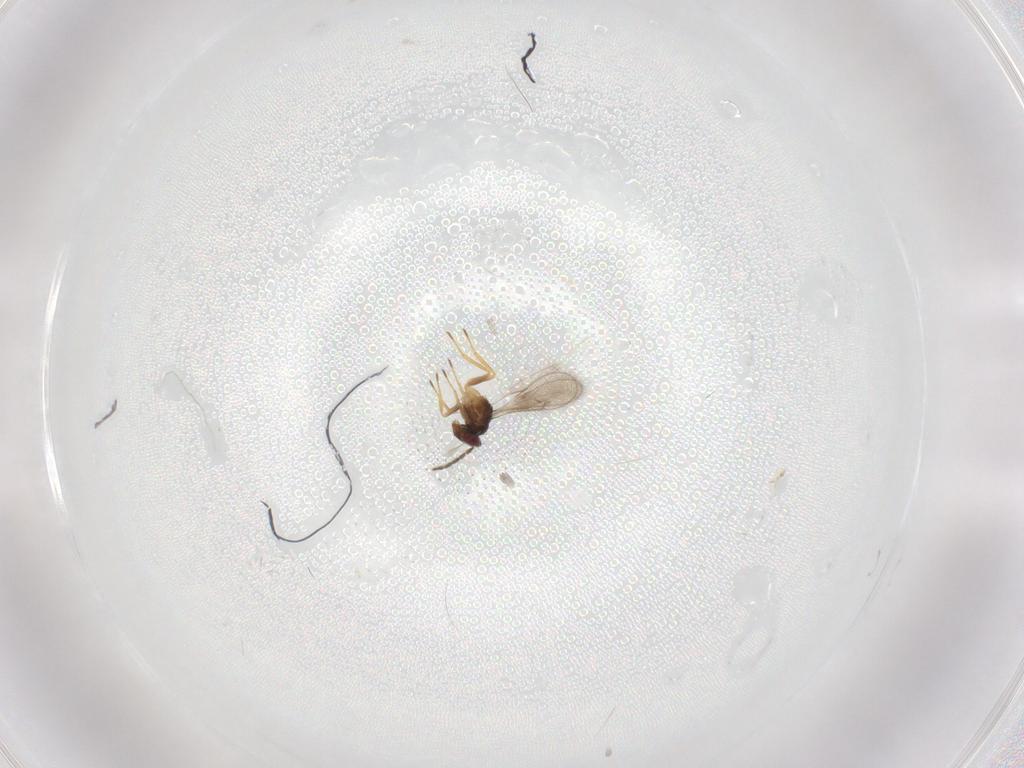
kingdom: Animalia
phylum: Arthropoda
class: Insecta
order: Hymenoptera
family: Eulophidae
